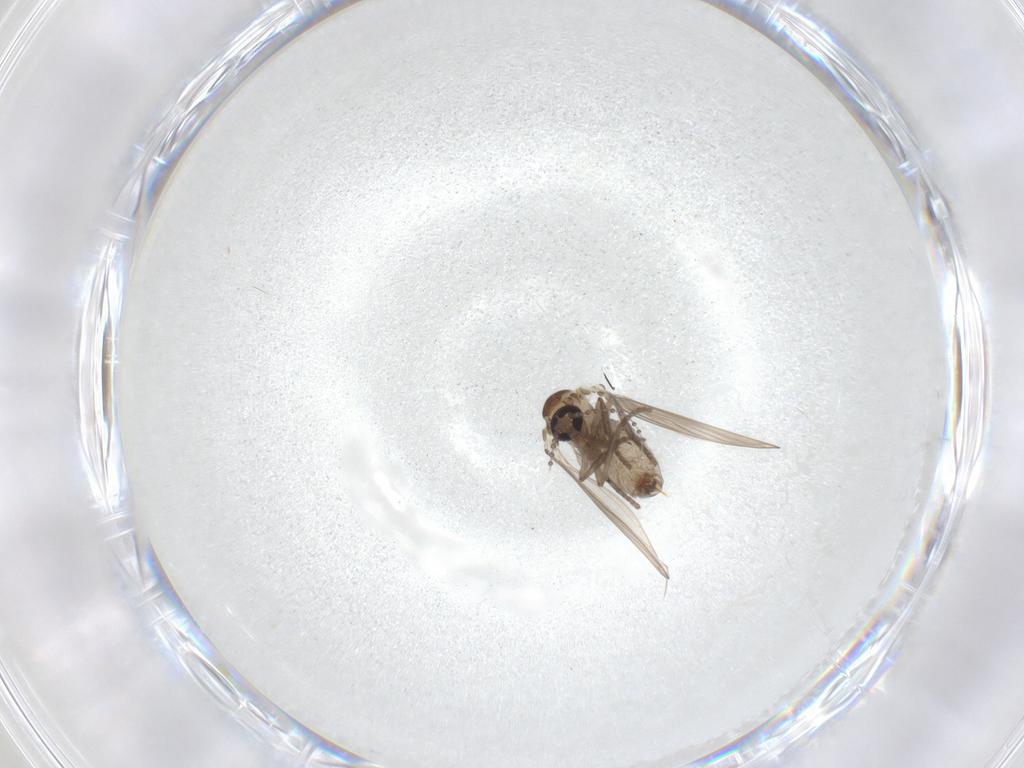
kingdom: Animalia
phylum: Arthropoda
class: Insecta
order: Diptera
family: Psychodidae
